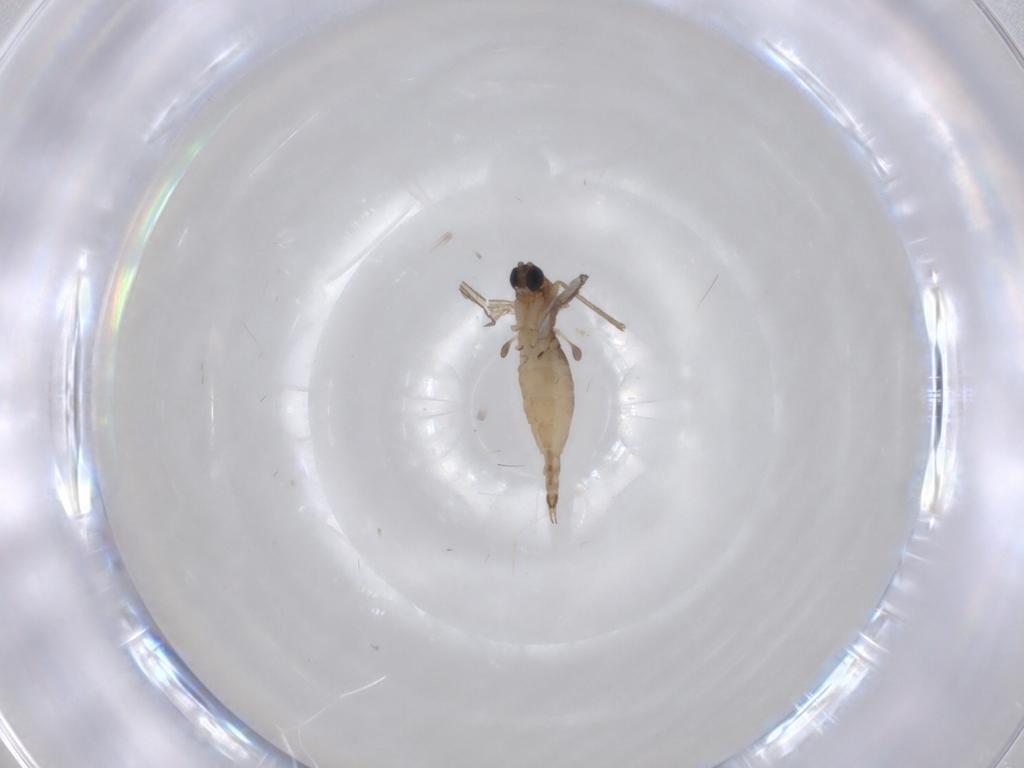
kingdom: Animalia
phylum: Arthropoda
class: Insecta
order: Diptera
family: Sciaridae
